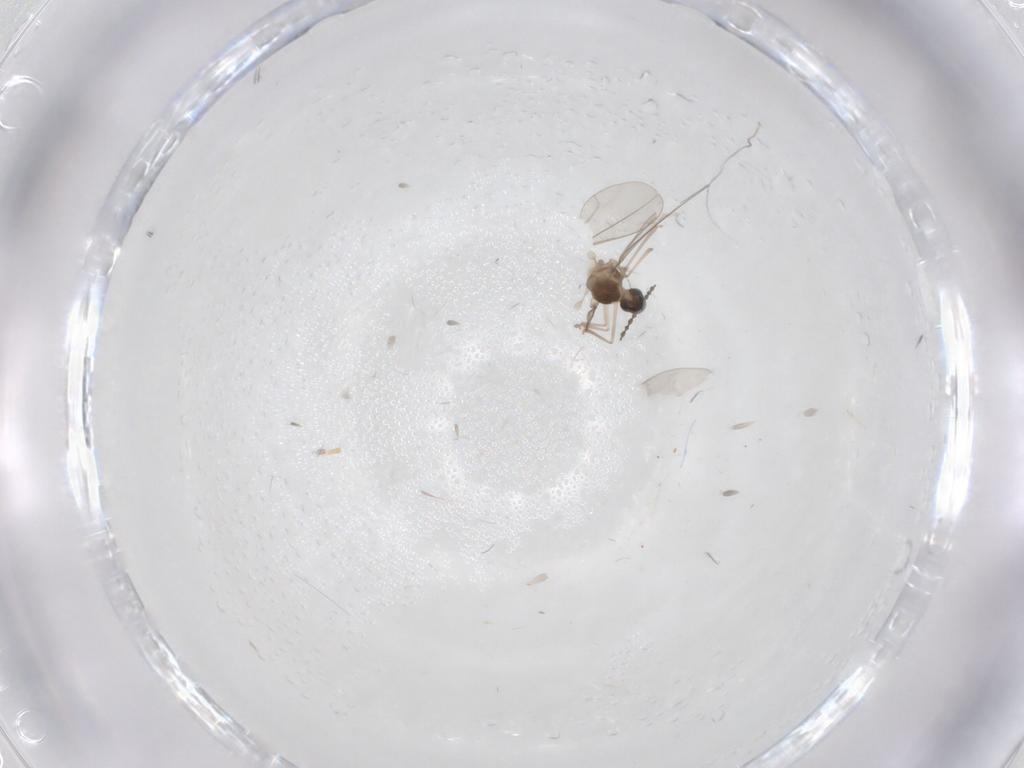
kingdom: Animalia
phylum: Arthropoda
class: Insecta
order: Diptera
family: Cecidomyiidae
